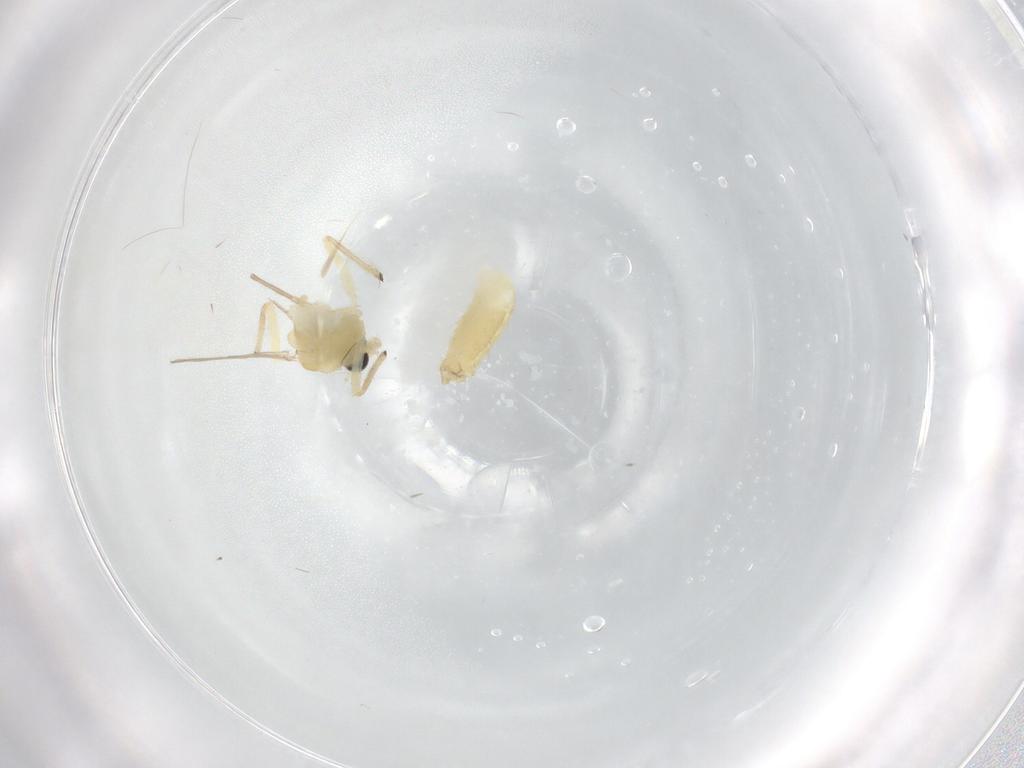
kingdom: Animalia
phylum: Arthropoda
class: Insecta
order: Diptera
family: Chironomidae
